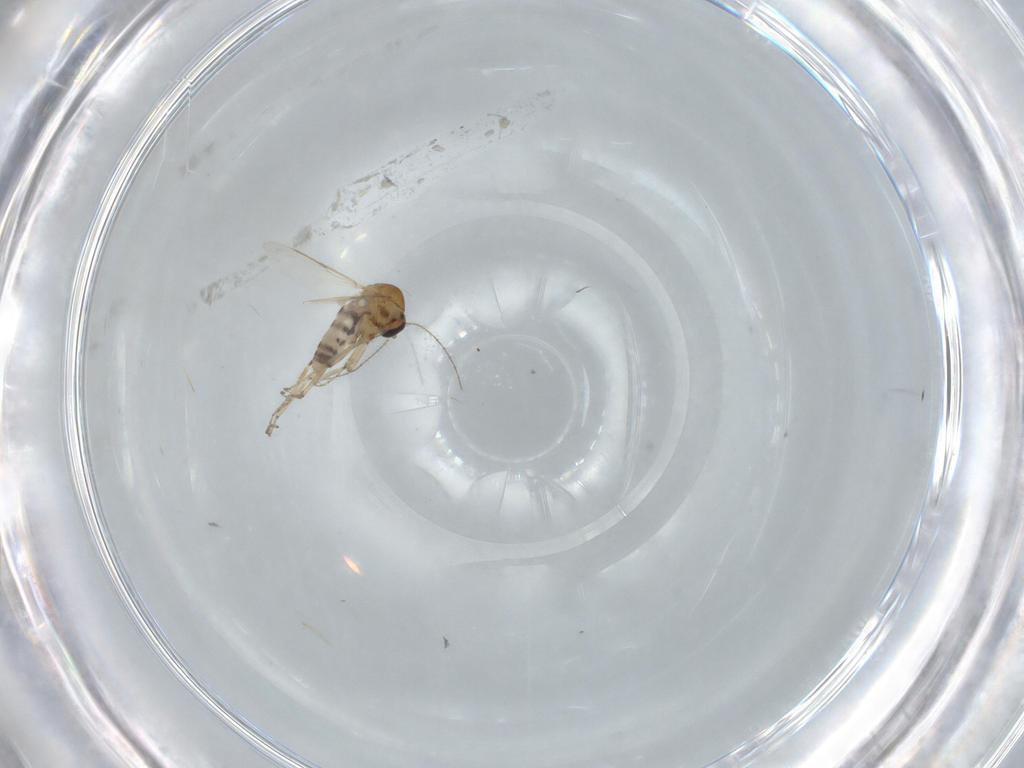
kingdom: Animalia
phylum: Arthropoda
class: Insecta
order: Diptera
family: Ceratopogonidae
